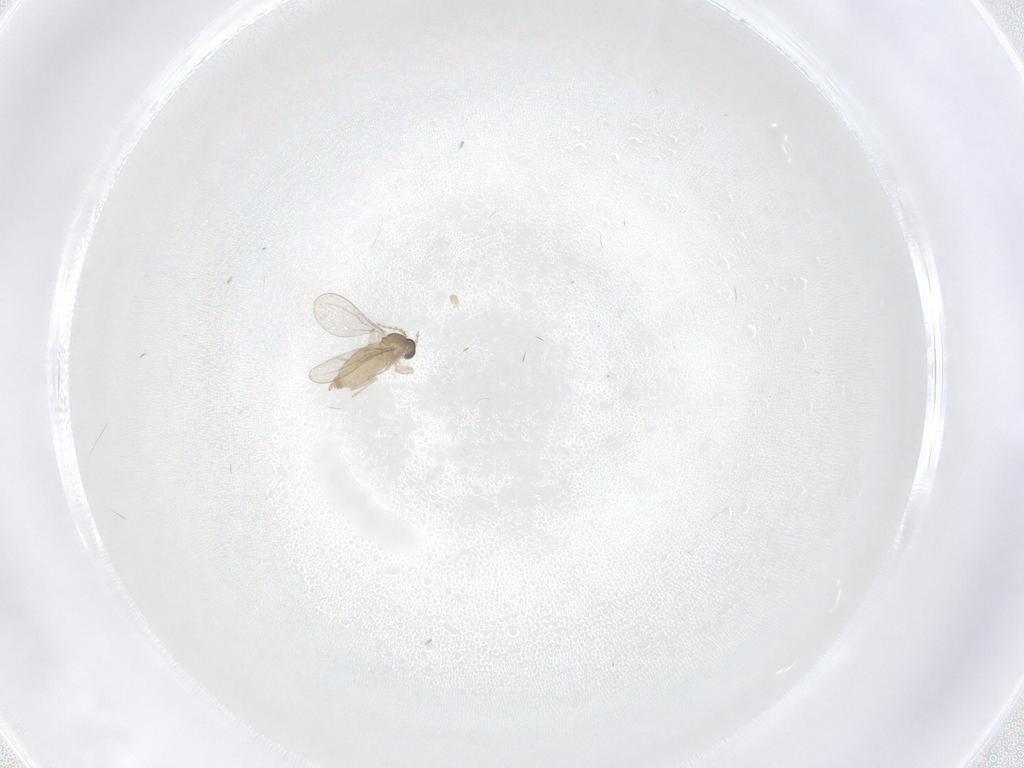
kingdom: Animalia
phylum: Arthropoda
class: Insecta
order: Diptera
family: Cecidomyiidae
